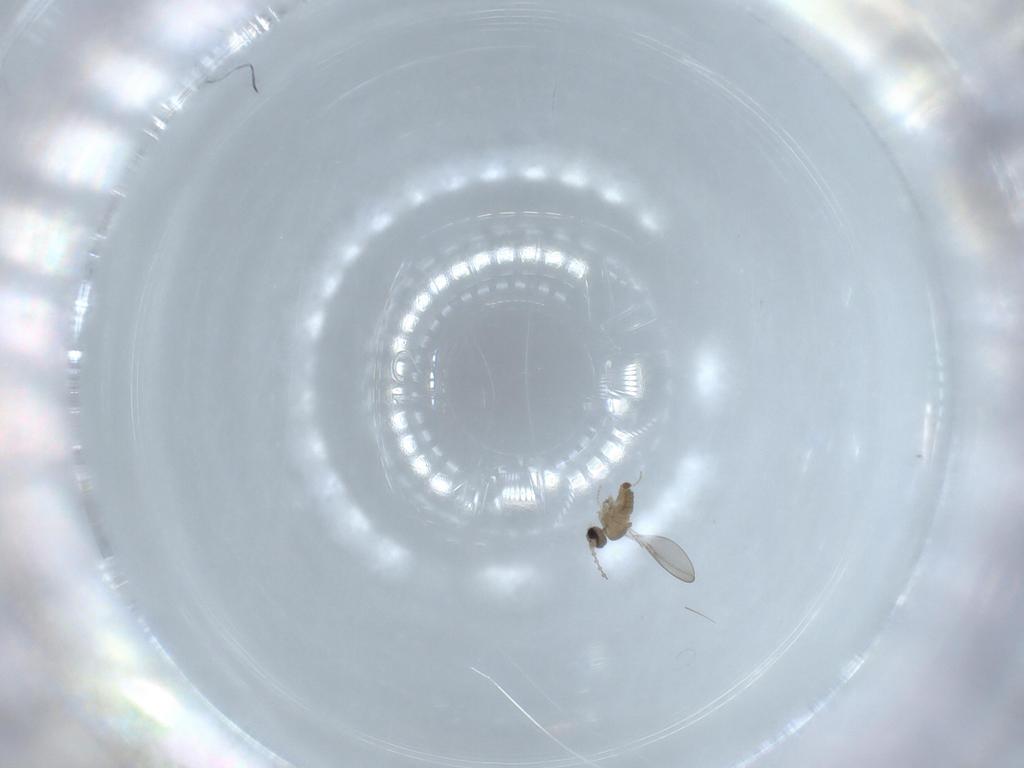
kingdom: Animalia
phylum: Arthropoda
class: Insecta
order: Diptera
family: Cecidomyiidae
